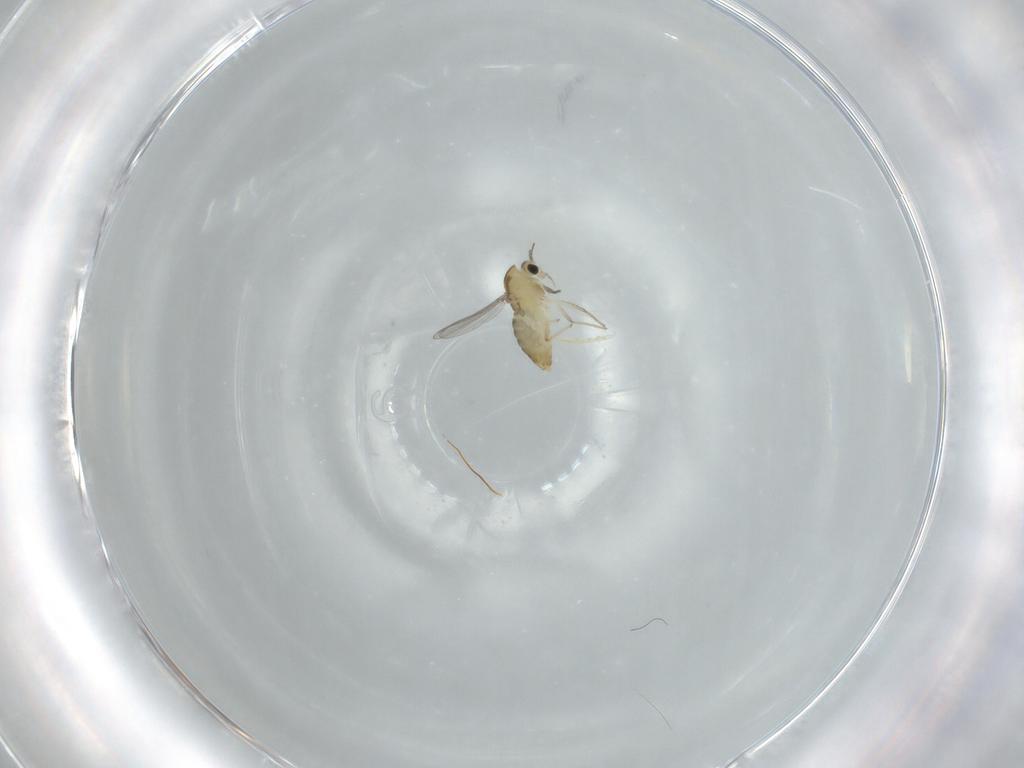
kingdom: Animalia
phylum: Arthropoda
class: Insecta
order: Diptera
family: Chironomidae
